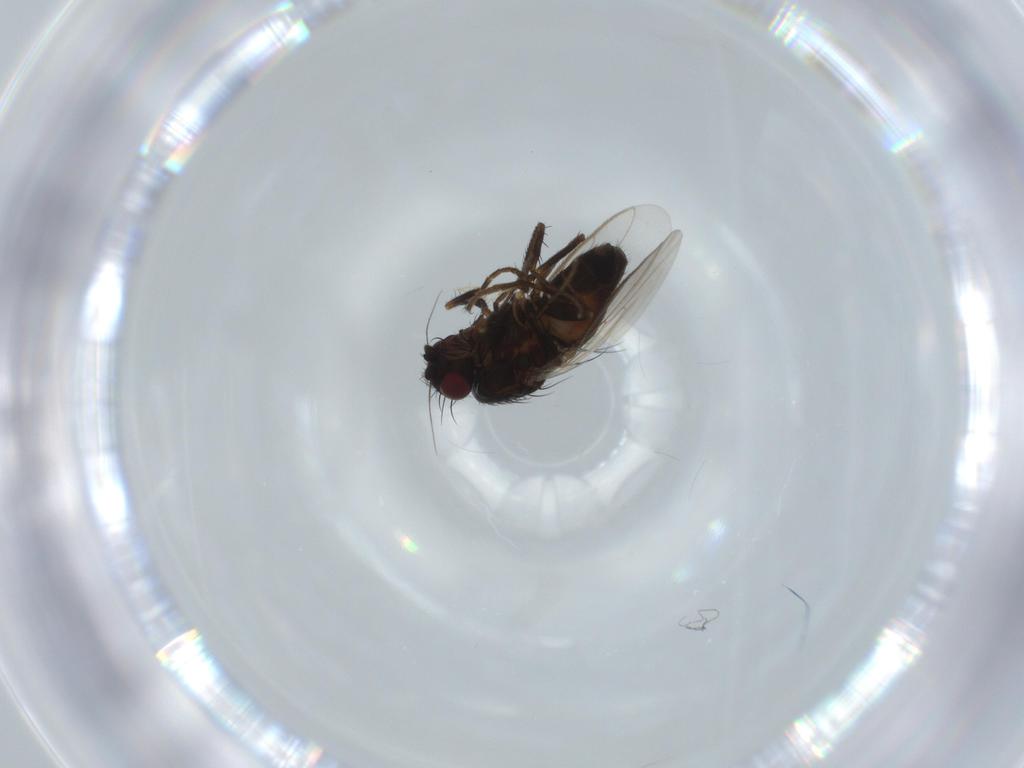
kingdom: Animalia
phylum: Arthropoda
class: Insecta
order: Diptera
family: Sphaeroceridae
